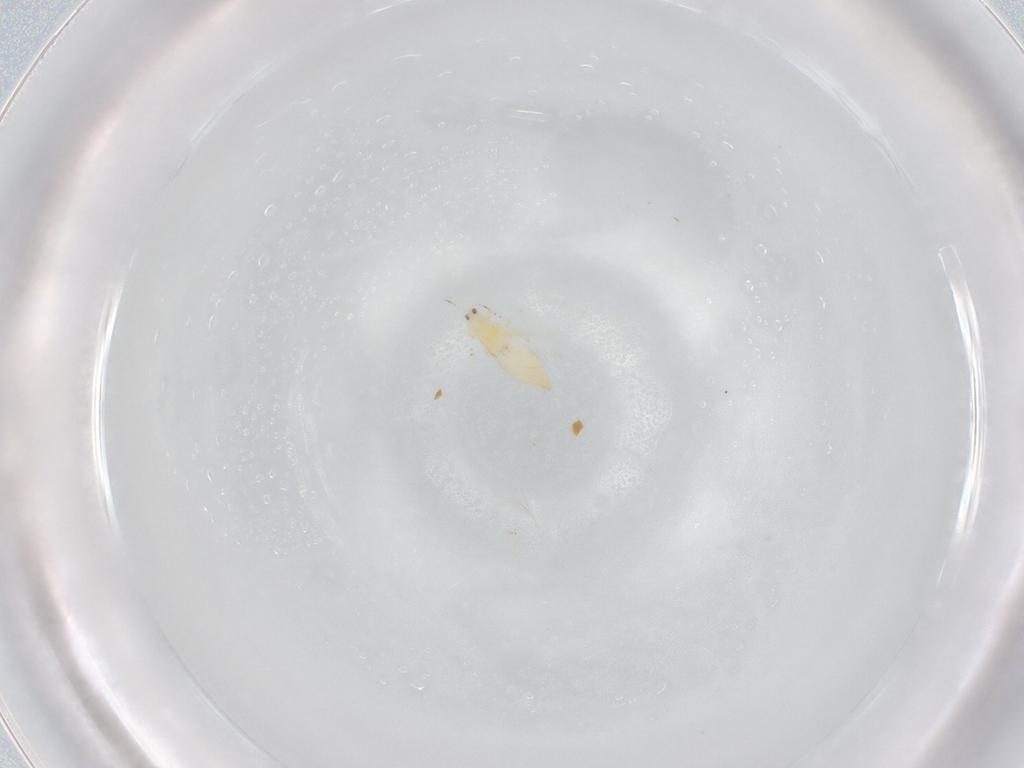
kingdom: Animalia
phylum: Arthropoda
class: Insecta
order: Thysanoptera
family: Thripidae
